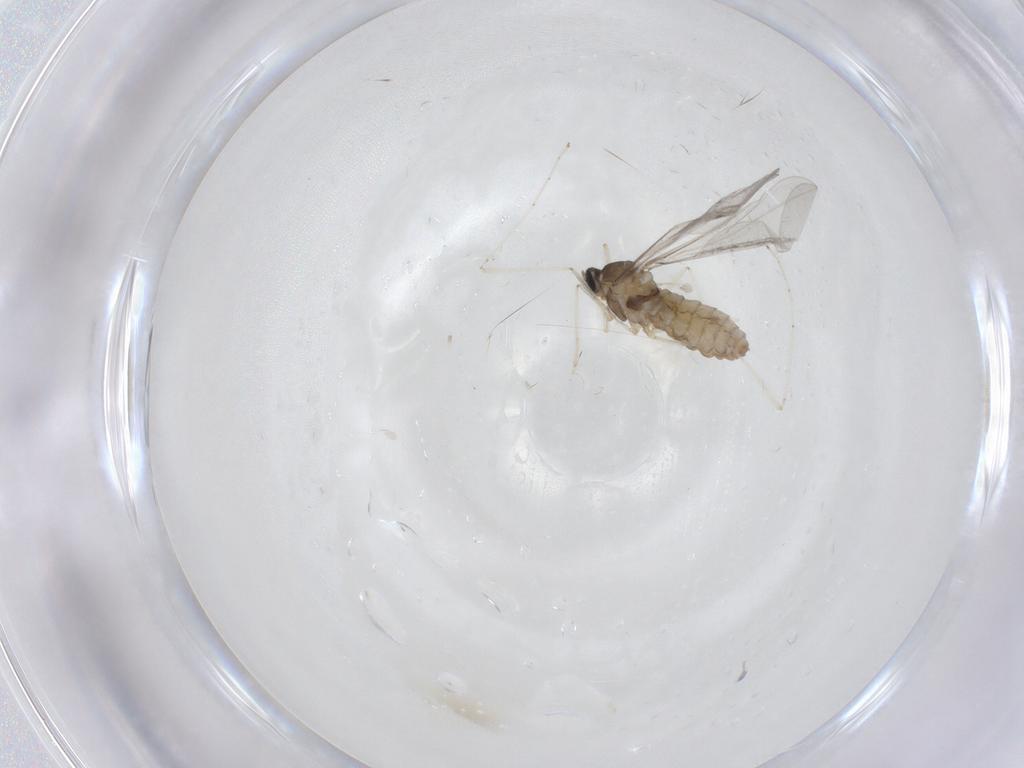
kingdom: Animalia
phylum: Arthropoda
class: Insecta
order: Diptera
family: Cecidomyiidae
